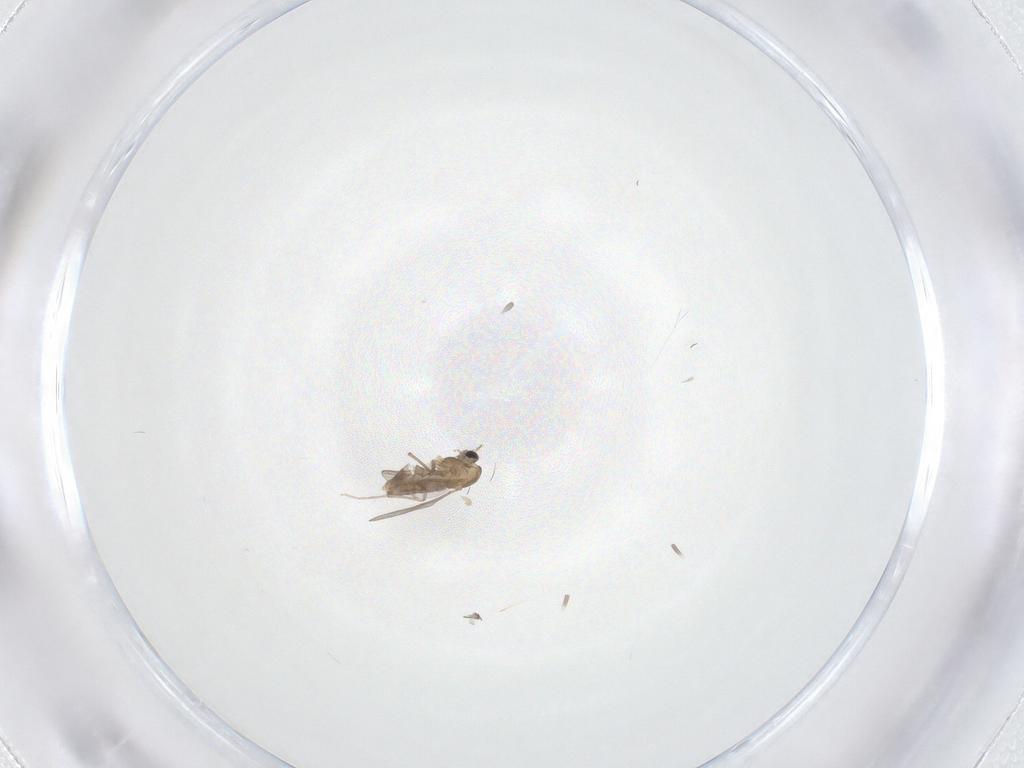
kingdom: Animalia
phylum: Arthropoda
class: Insecta
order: Diptera
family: Chironomidae
